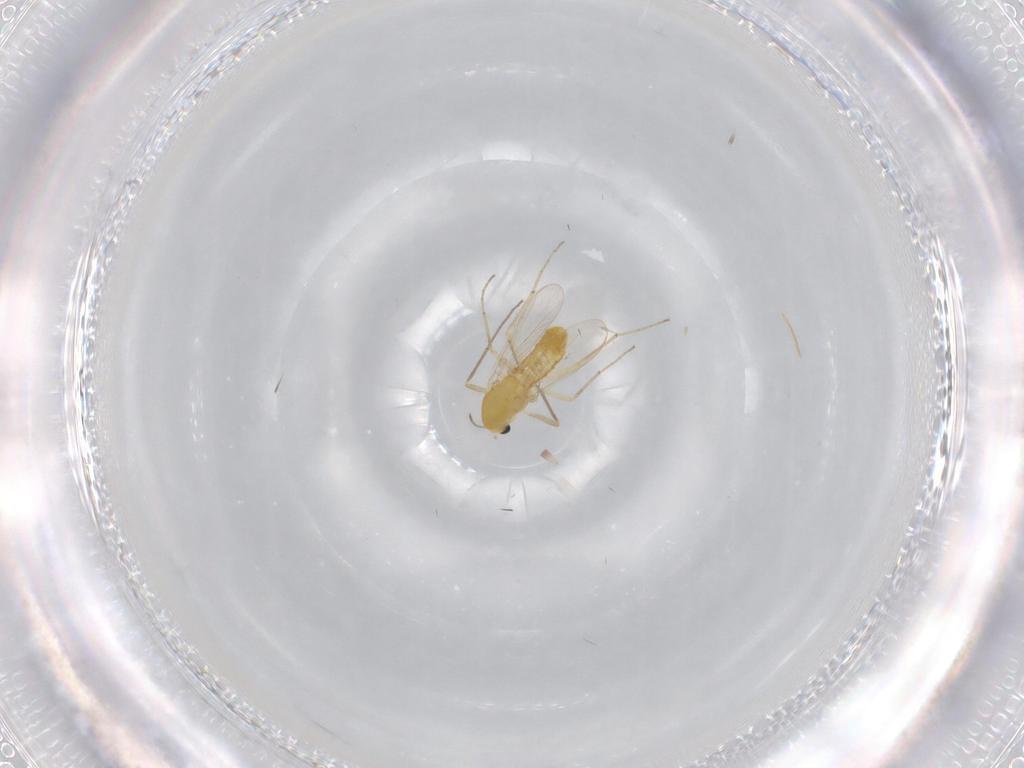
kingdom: Animalia
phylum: Arthropoda
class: Insecta
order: Diptera
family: Chironomidae
